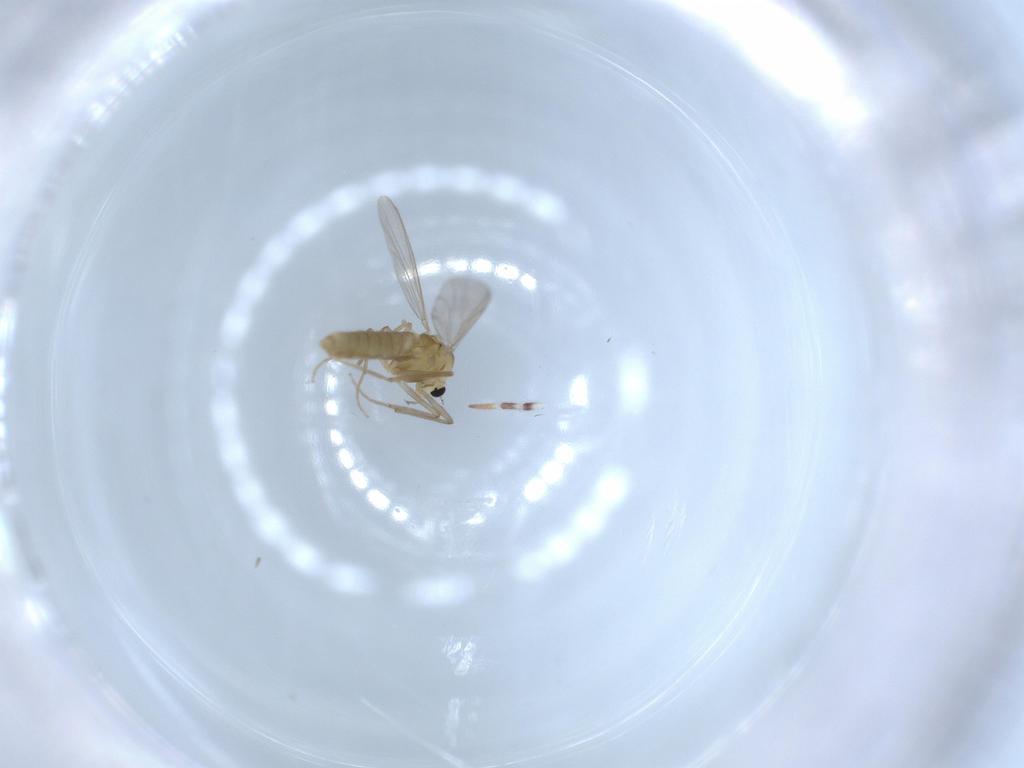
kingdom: Animalia
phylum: Arthropoda
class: Insecta
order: Diptera
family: Chironomidae
